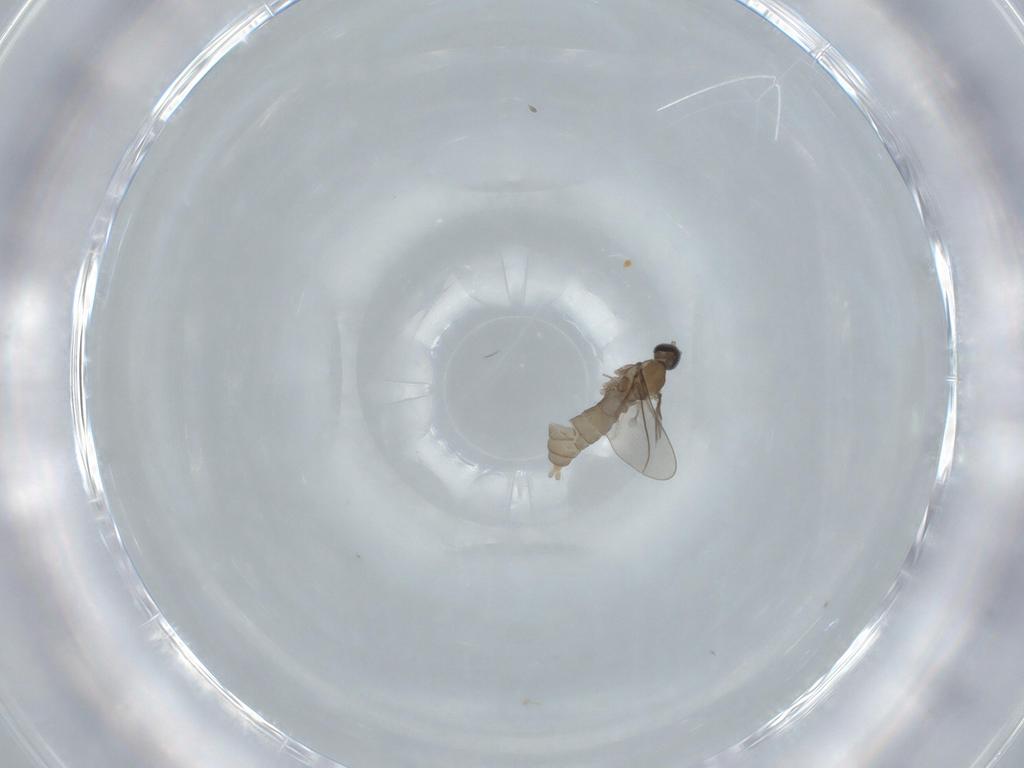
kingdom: Animalia
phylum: Arthropoda
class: Insecta
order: Diptera
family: Cecidomyiidae
